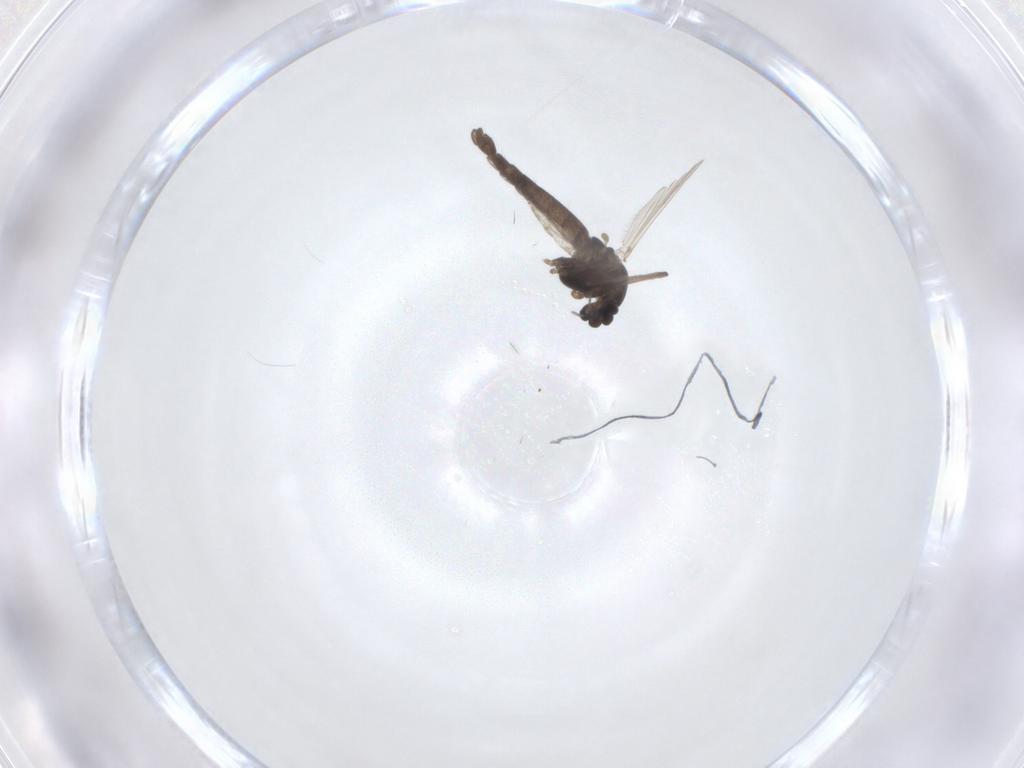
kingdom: Animalia
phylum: Arthropoda
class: Insecta
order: Diptera
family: Chironomidae
